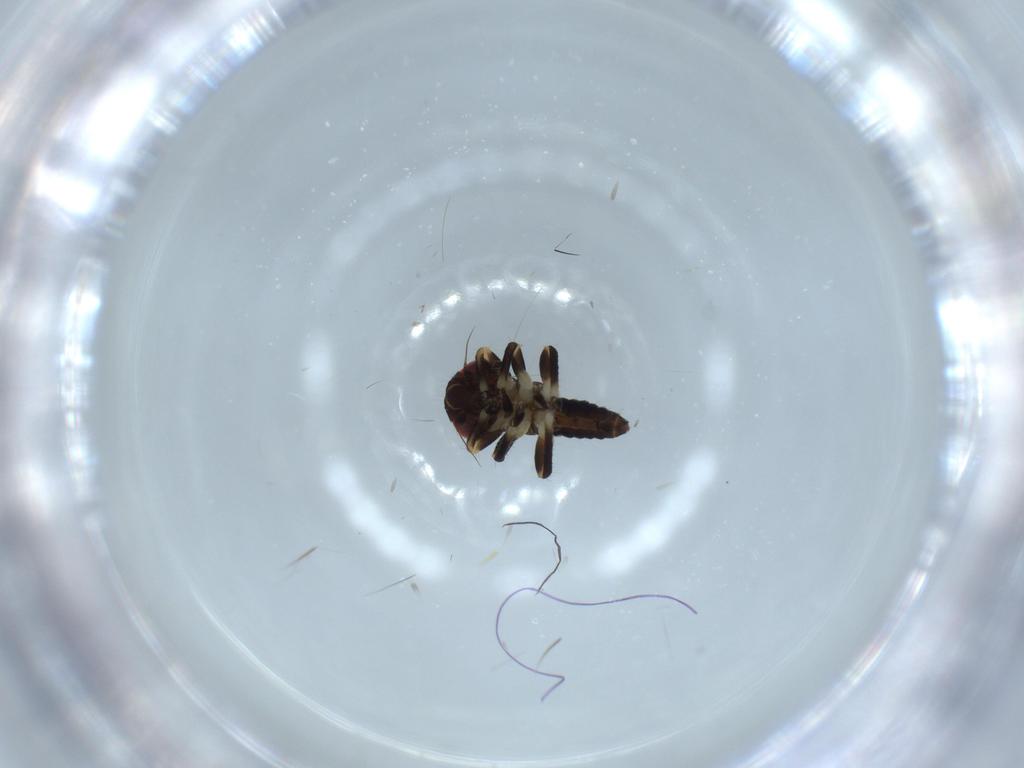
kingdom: Animalia
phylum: Arthropoda
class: Insecta
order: Hemiptera
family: Cicadellidae
